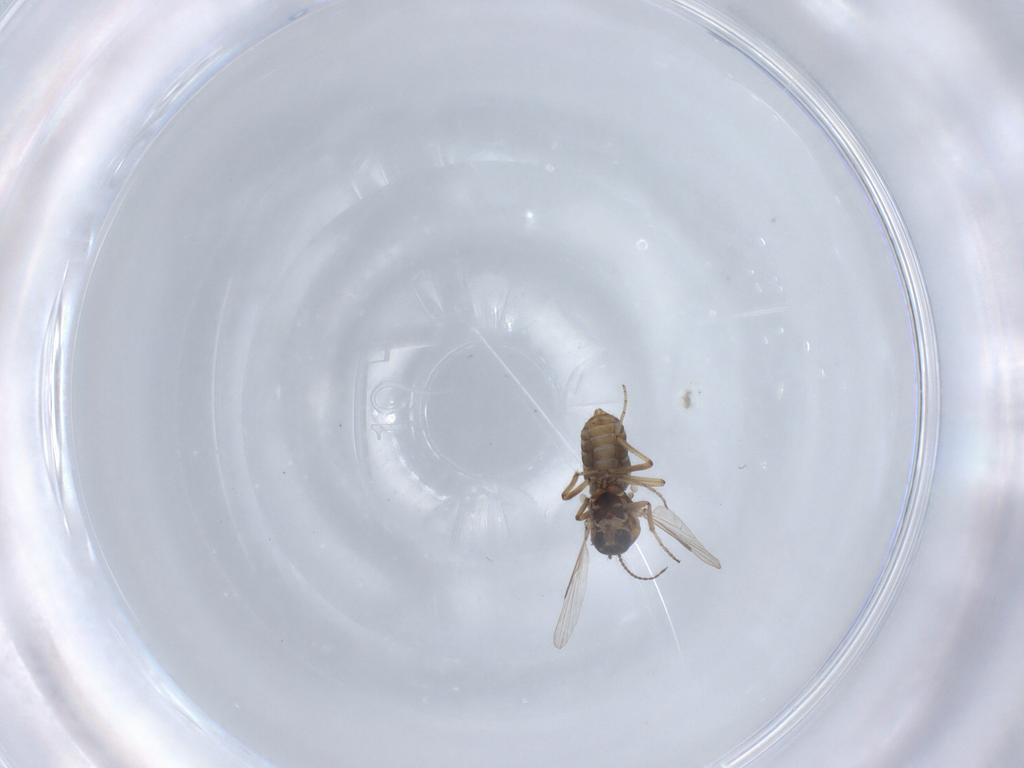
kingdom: Animalia
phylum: Arthropoda
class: Insecta
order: Diptera
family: Ceratopogonidae
